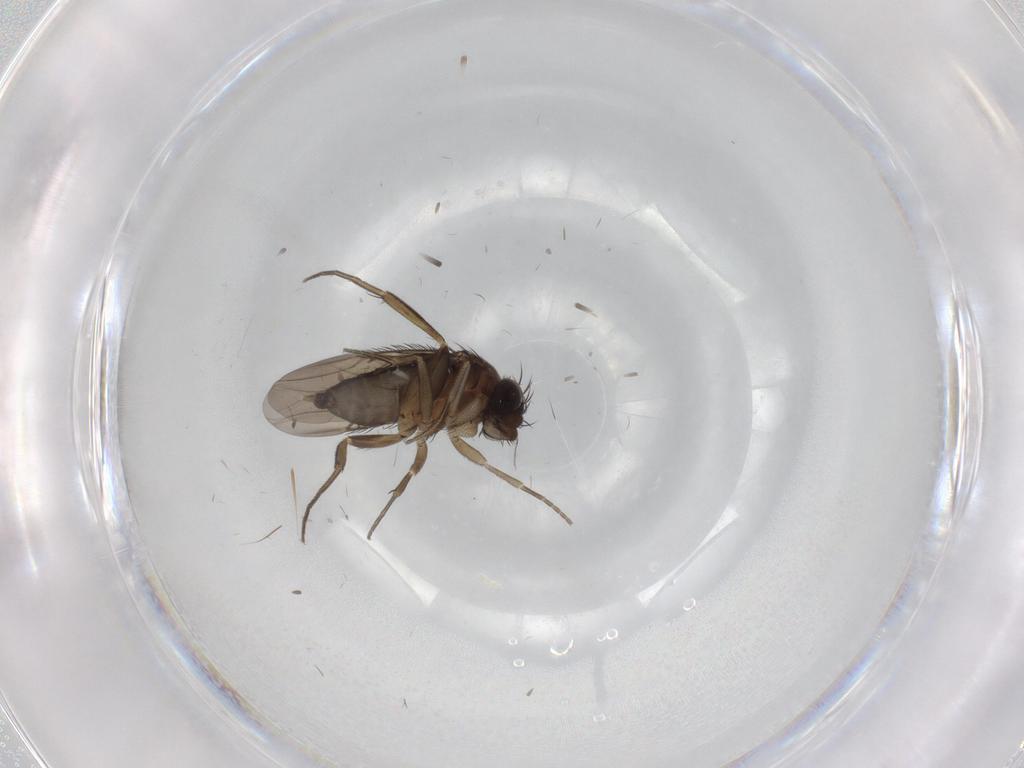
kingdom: Animalia
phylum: Arthropoda
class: Insecta
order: Diptera
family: Phoridae
